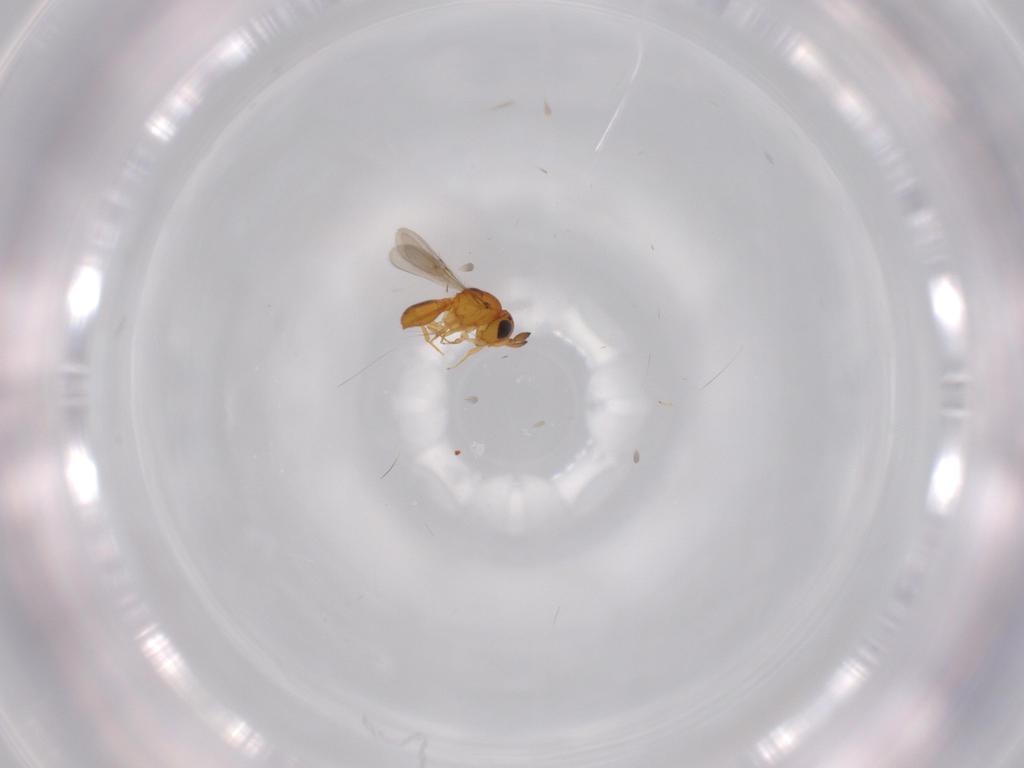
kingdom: Animalia
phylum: Arthropoda
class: Insecta
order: Hymenoptera
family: Scelionidae
